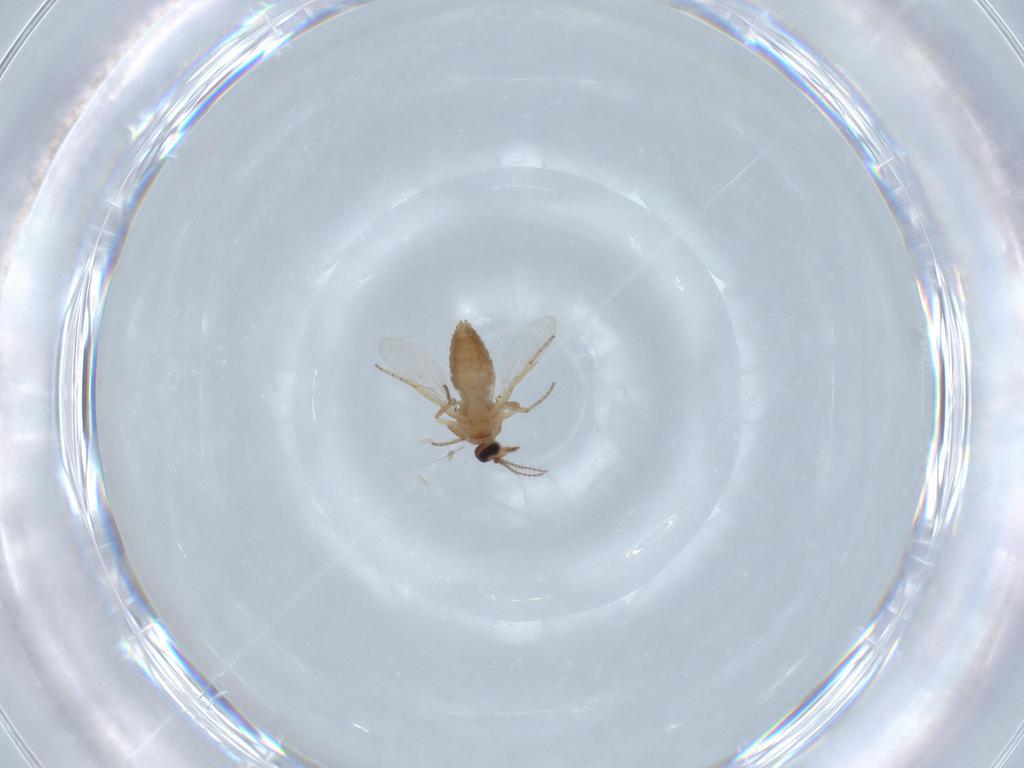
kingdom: Animalia
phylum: Arthropoda
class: Insecta
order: Diptera
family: Ceratopogonidae
